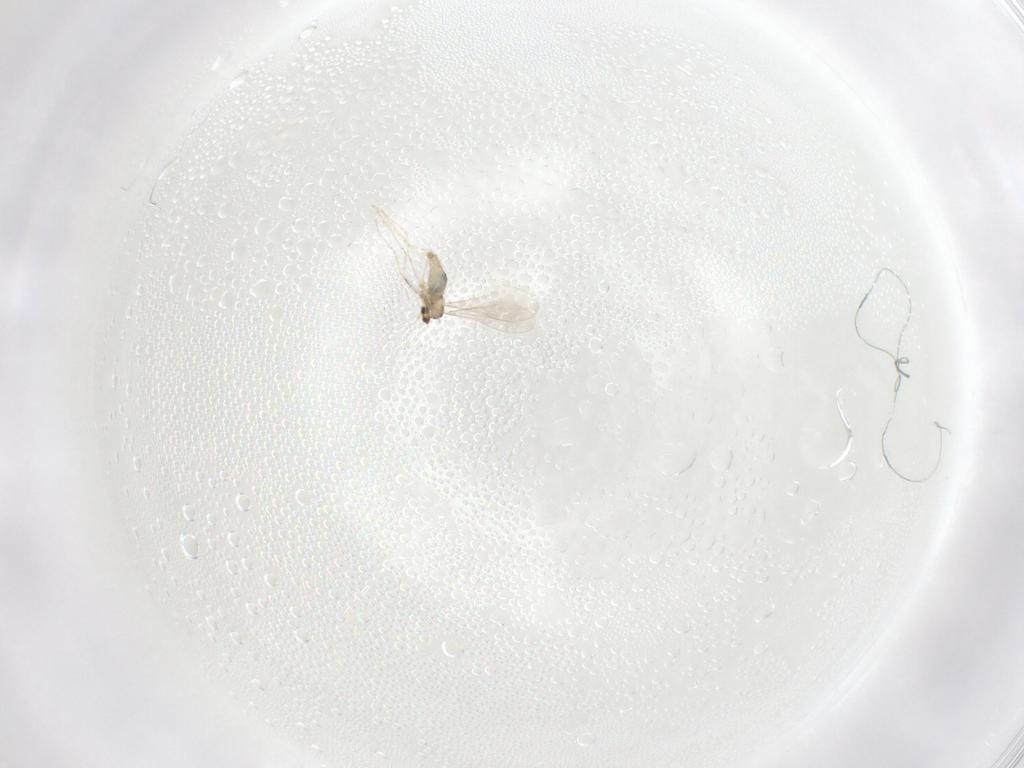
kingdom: Animalia
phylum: Arthropoda
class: Insecta
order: Diptera
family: Cecidomyiidae
